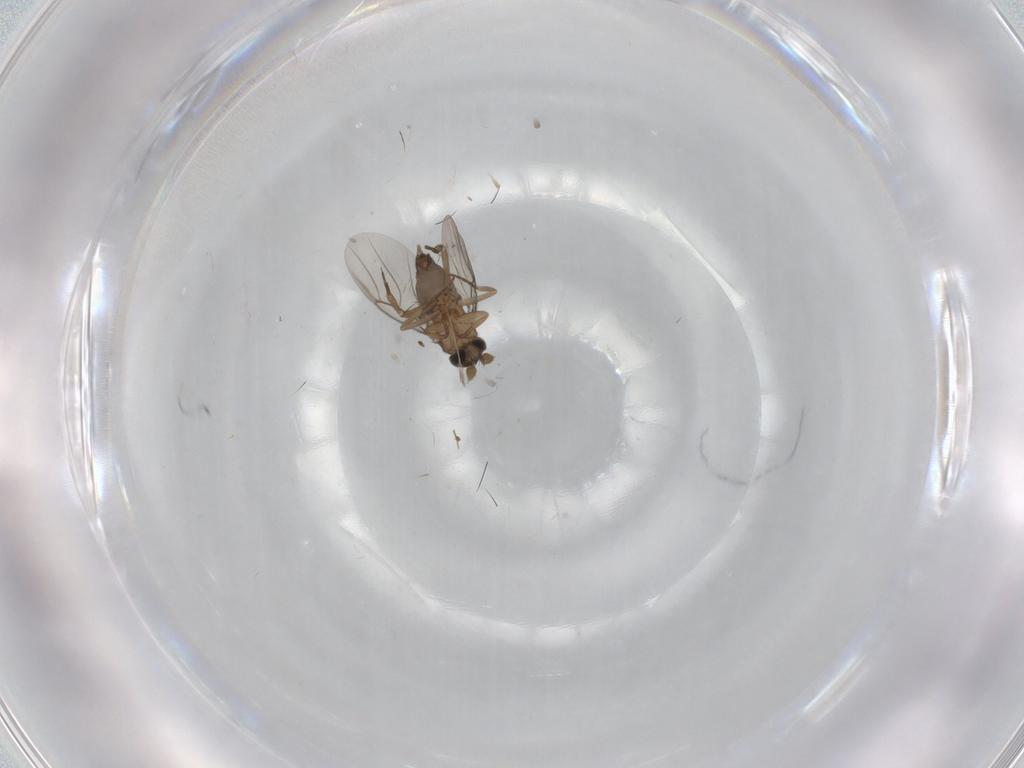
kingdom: Animalia
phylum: Arthropoda
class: Insecta
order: Diptera
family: Phoridae
